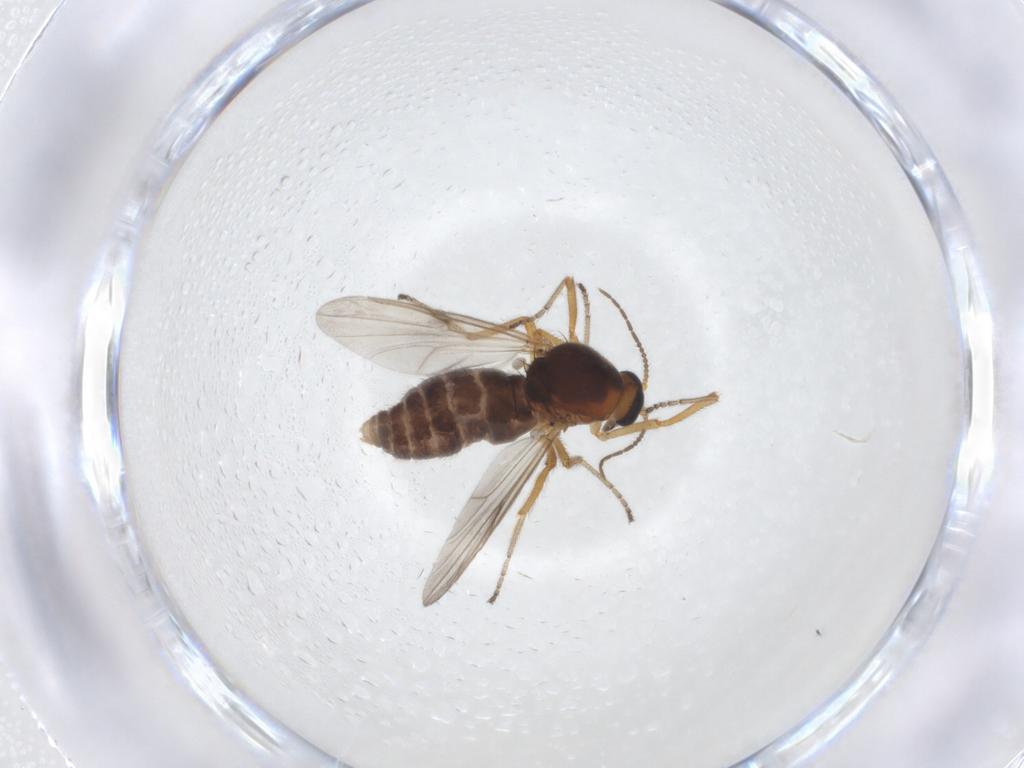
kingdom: Animalia
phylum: Arthropoda
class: Insecta
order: Diptera
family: Ceratopogonidae
